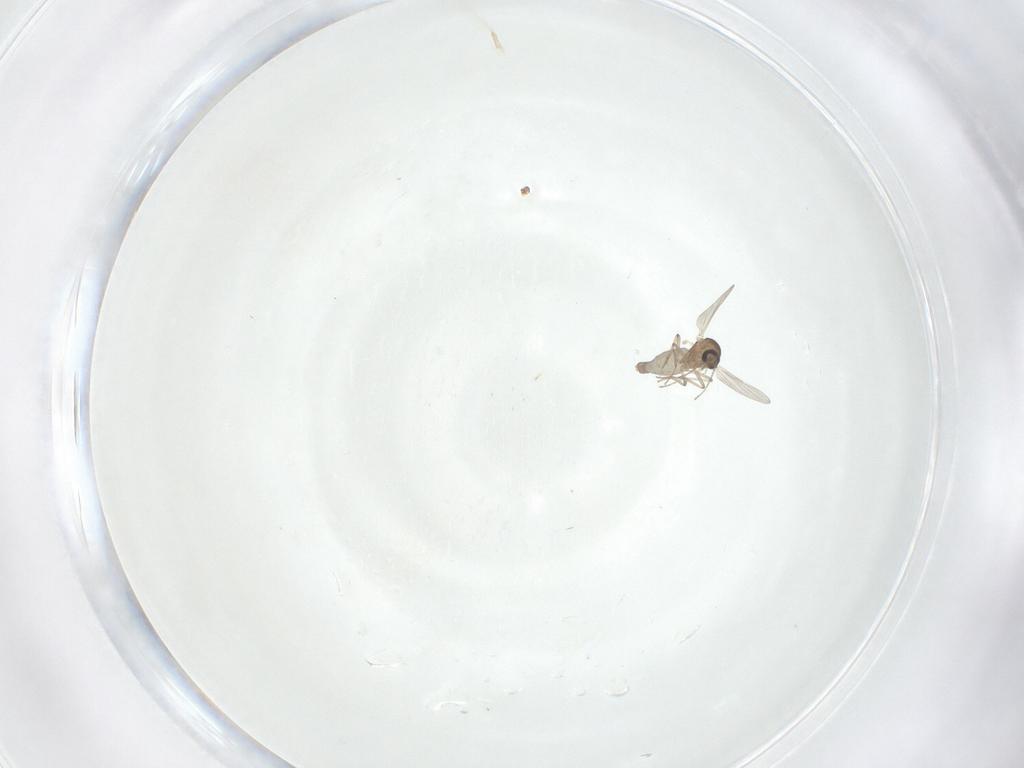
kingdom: Animalia
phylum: Arthropoda
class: Insecta
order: Diptera
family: Ceratopogonidae
